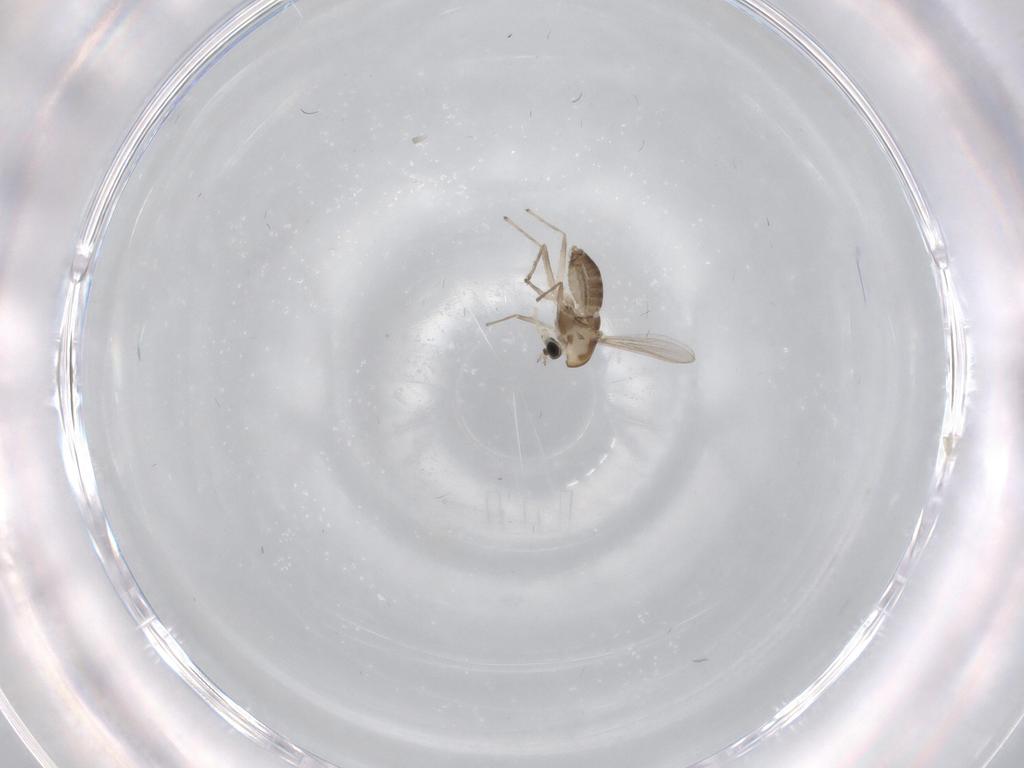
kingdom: Animalia
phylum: Arthropoda
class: Insecta
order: Diptera
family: Chironomidae
